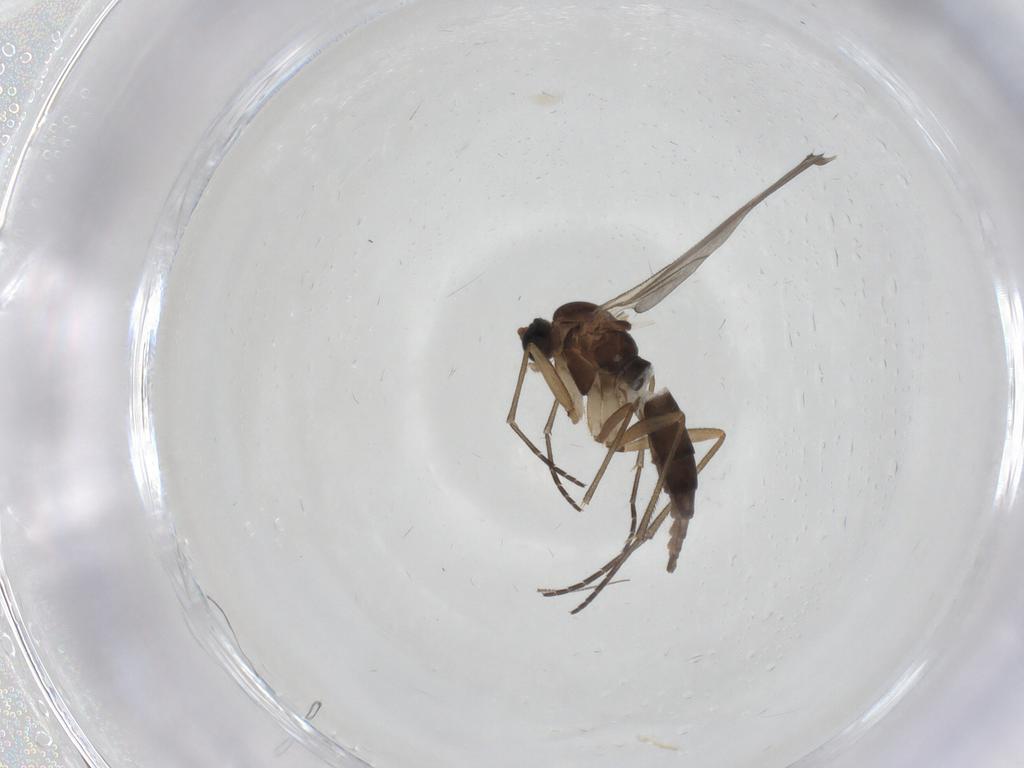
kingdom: Animalia
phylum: Arthropoda
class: Insecta
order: Diptera
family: Sciaridae
